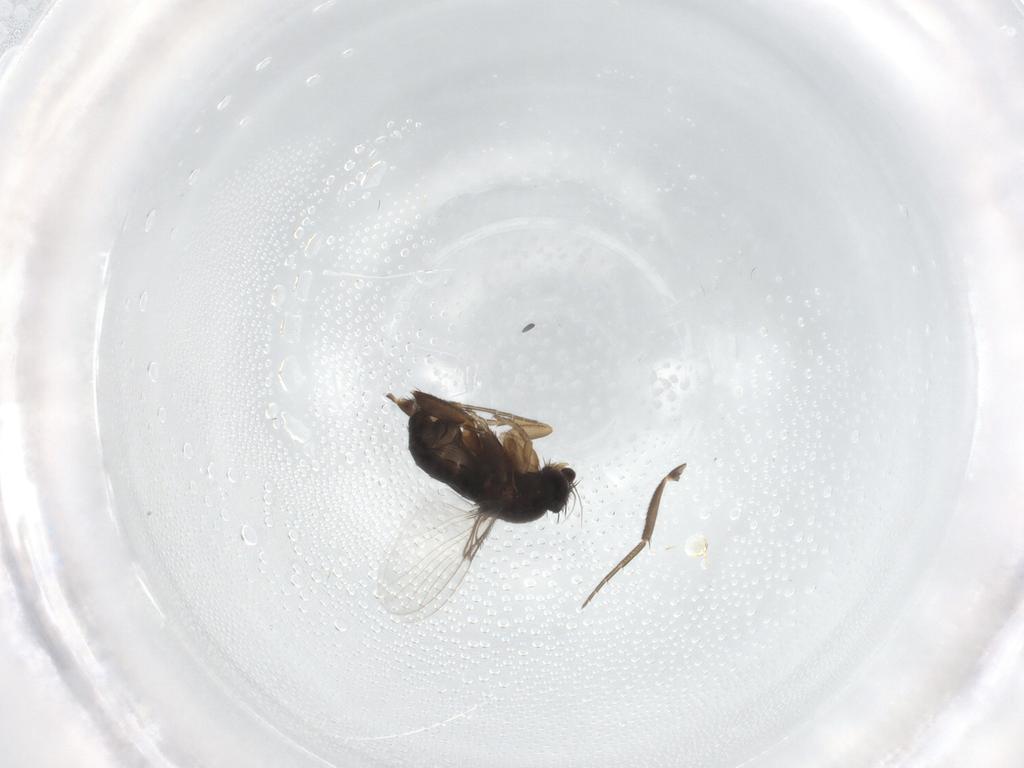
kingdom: Animalia
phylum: Arthropoda
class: Insecta
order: Diptera
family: Phoridae
